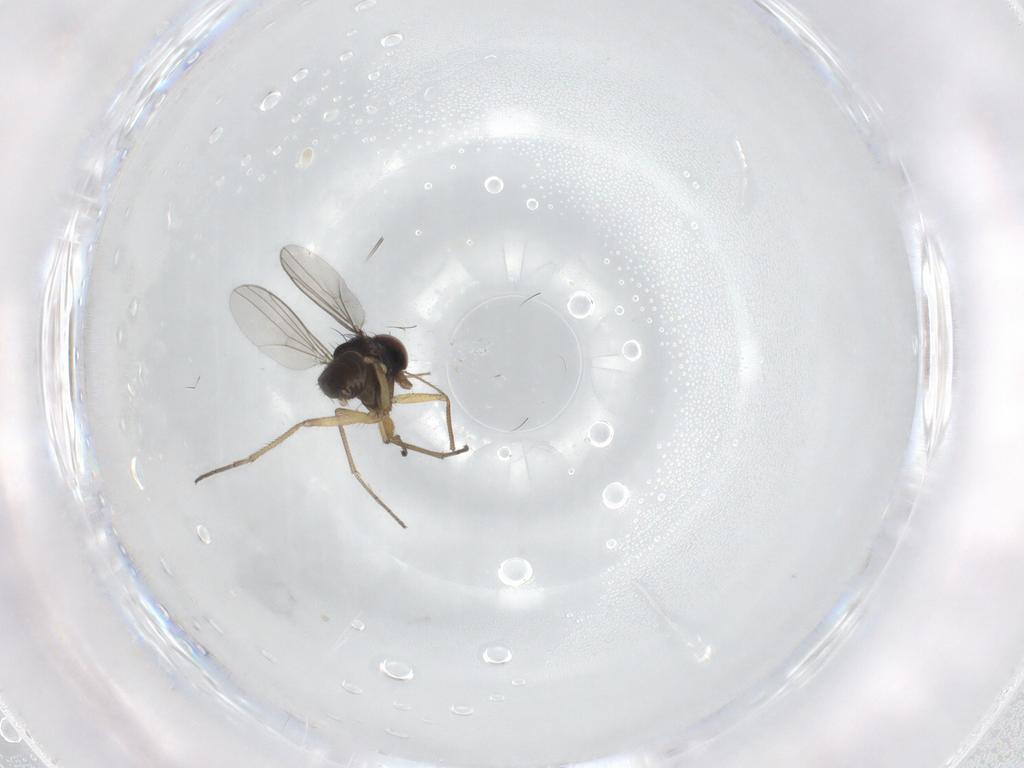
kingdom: Animalia
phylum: Arthropoda
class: Insecta
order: Diptera
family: Dolichopodidae
